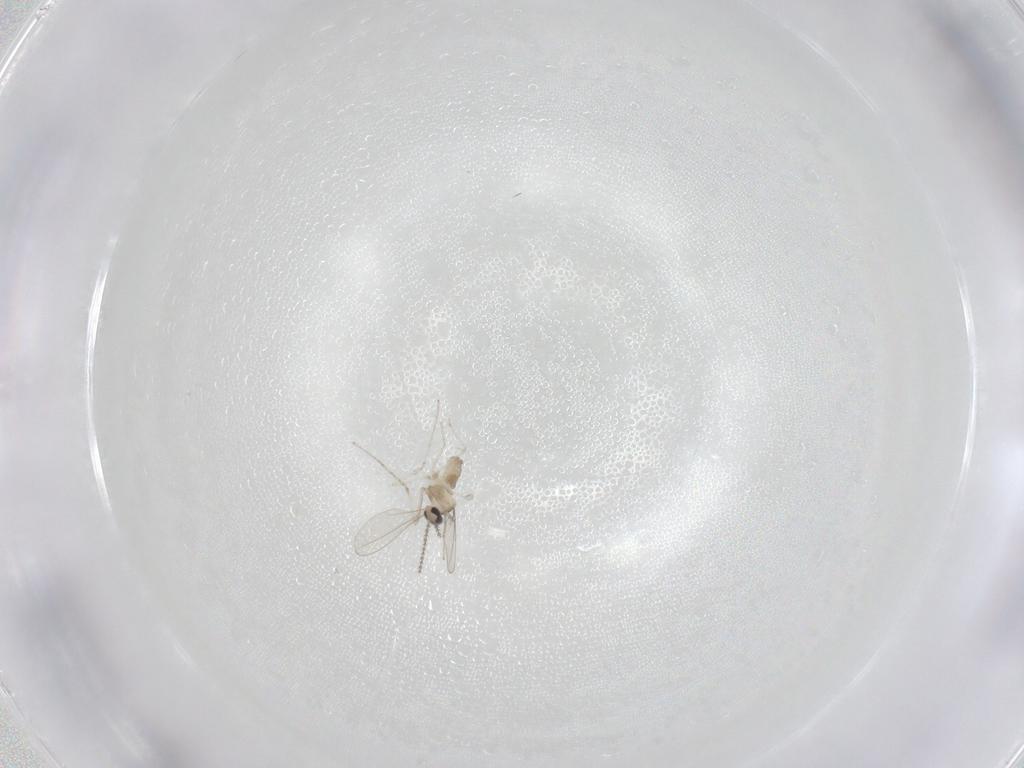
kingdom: Animalia
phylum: Arthropoda
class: Insecta
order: Diptera
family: Cecidomyiidae
